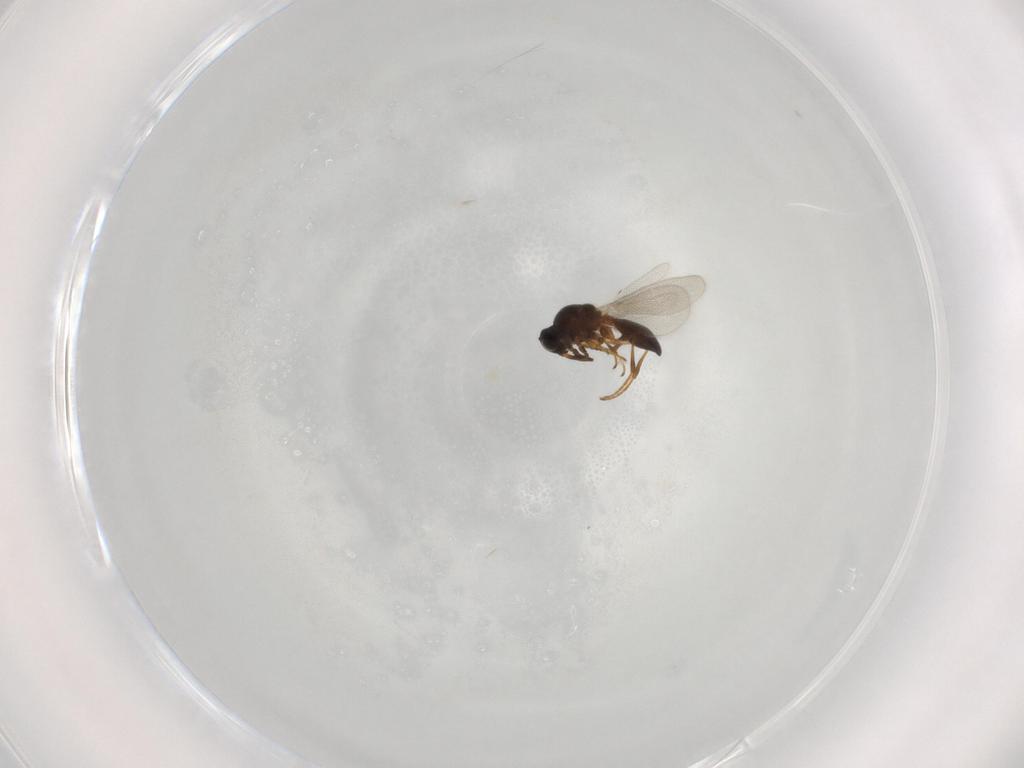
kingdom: Animalia
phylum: Arthropoda
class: Insecta
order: Hymenoptera
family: Platygastridae
